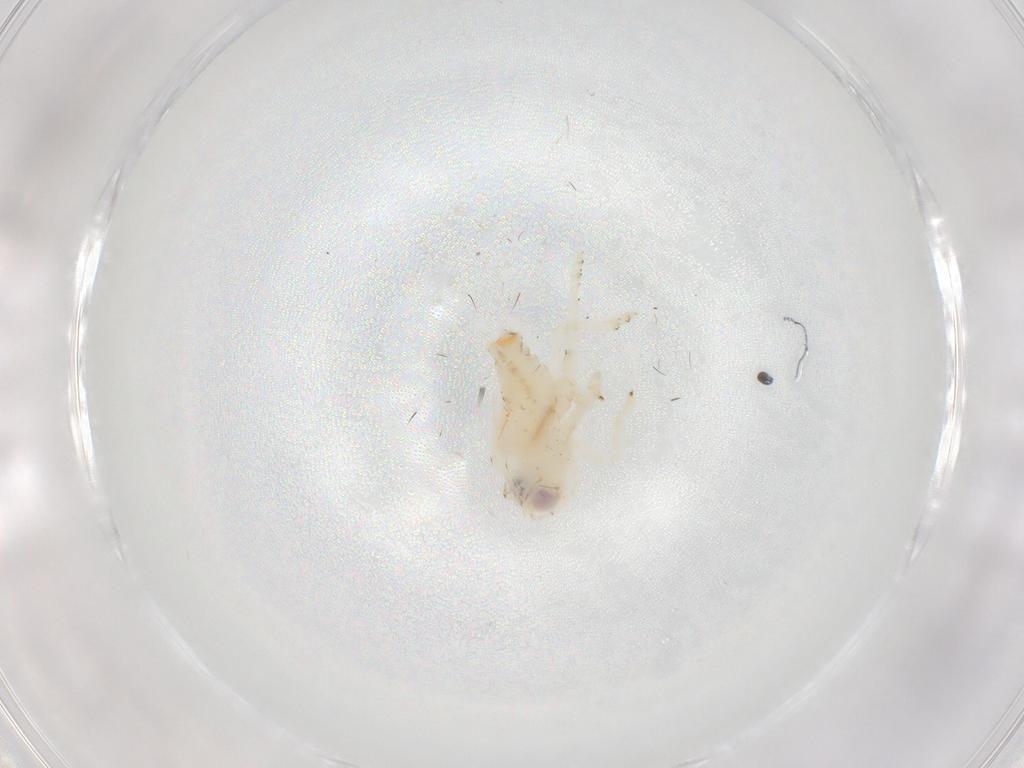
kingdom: Animalia
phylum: Arthropoda
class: Insecta
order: Hemiptera
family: Nogodinidae
